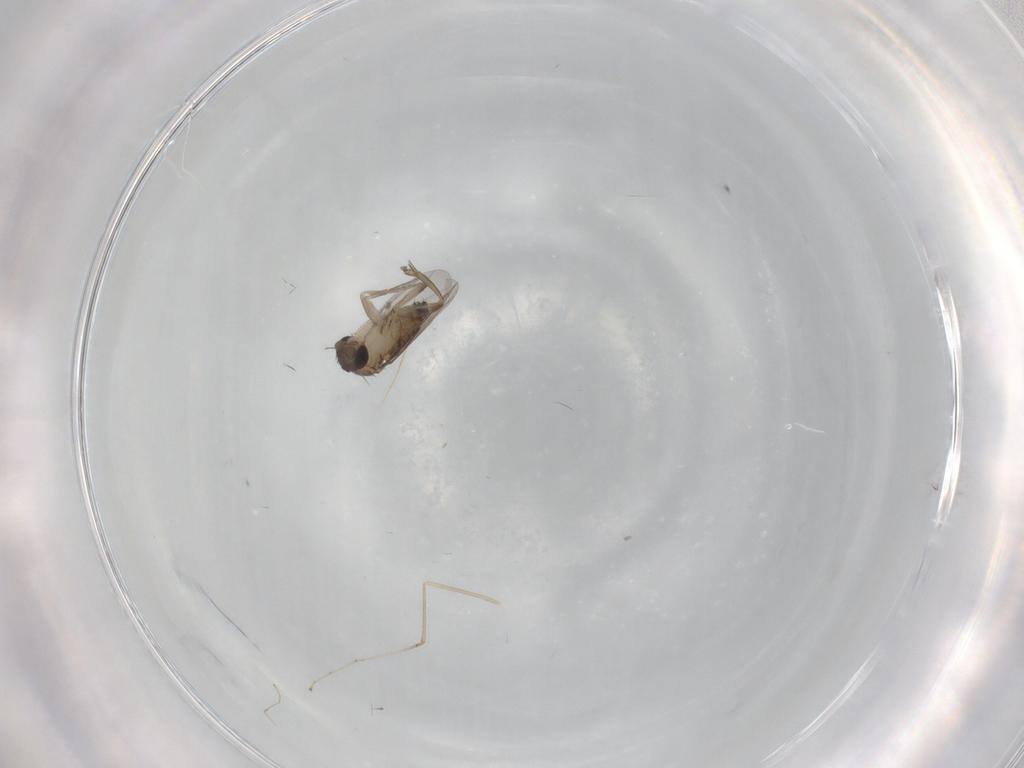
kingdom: Animalia
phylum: Arthropoda
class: Insecta
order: Diptera
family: Phoridae
